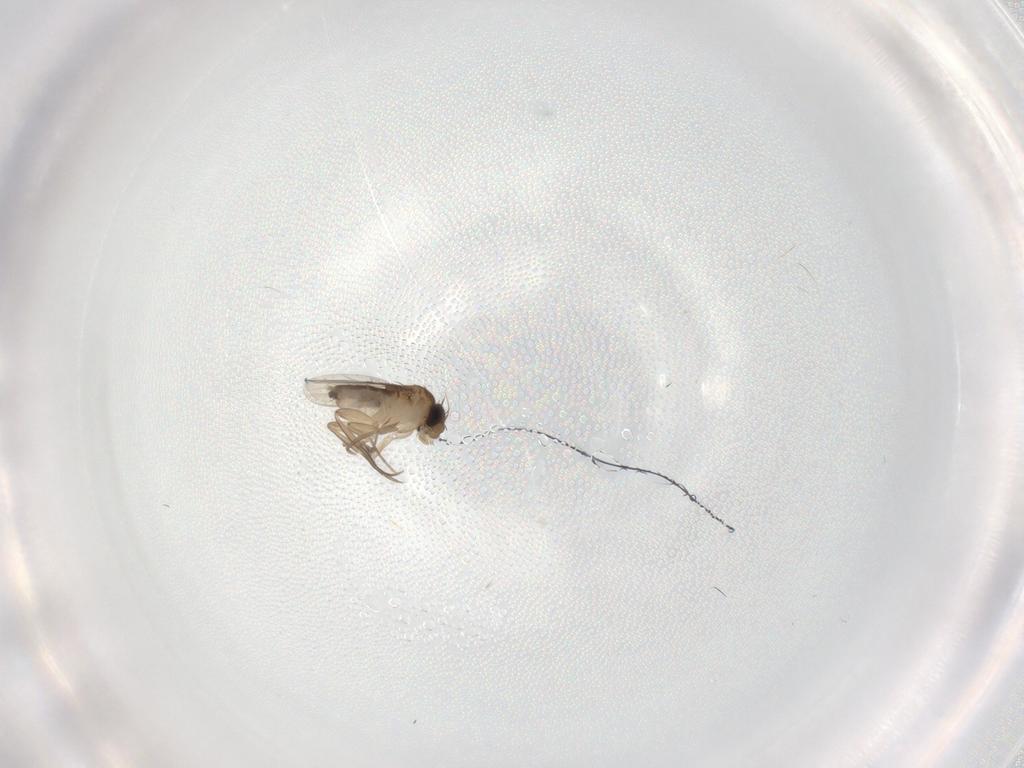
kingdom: Animalia
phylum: Arthropoda
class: Insecta
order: Diptera
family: Phoridae
